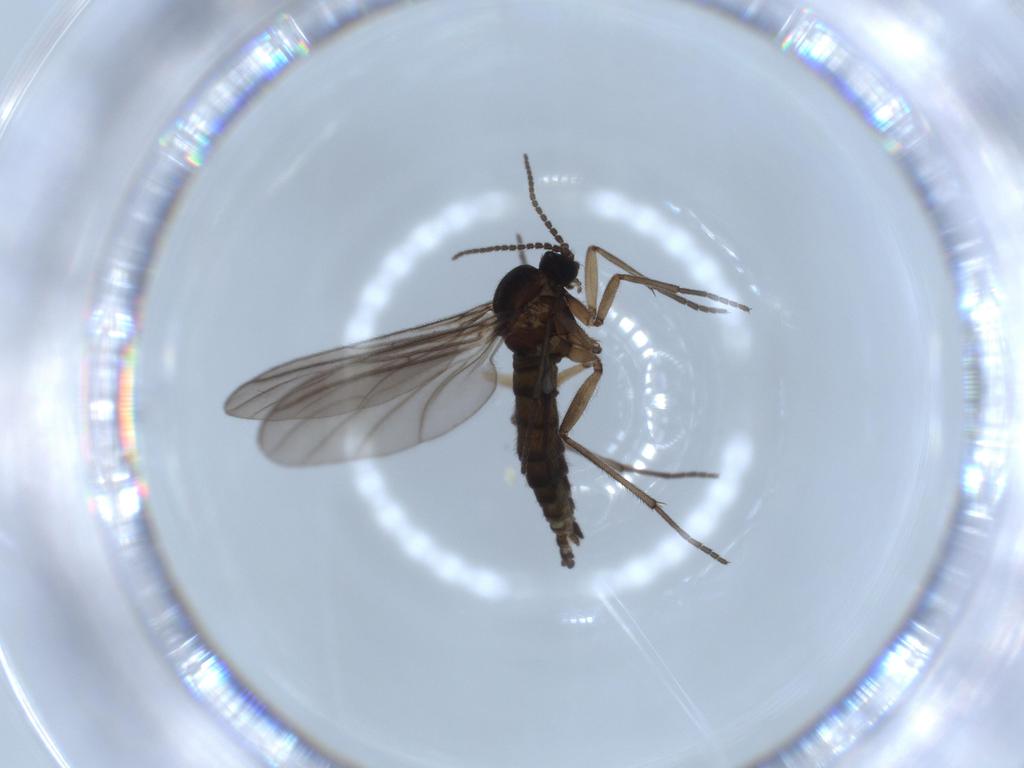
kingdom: Animalia
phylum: Arthropoda
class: Insecta
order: Diptera
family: Sciaridae
